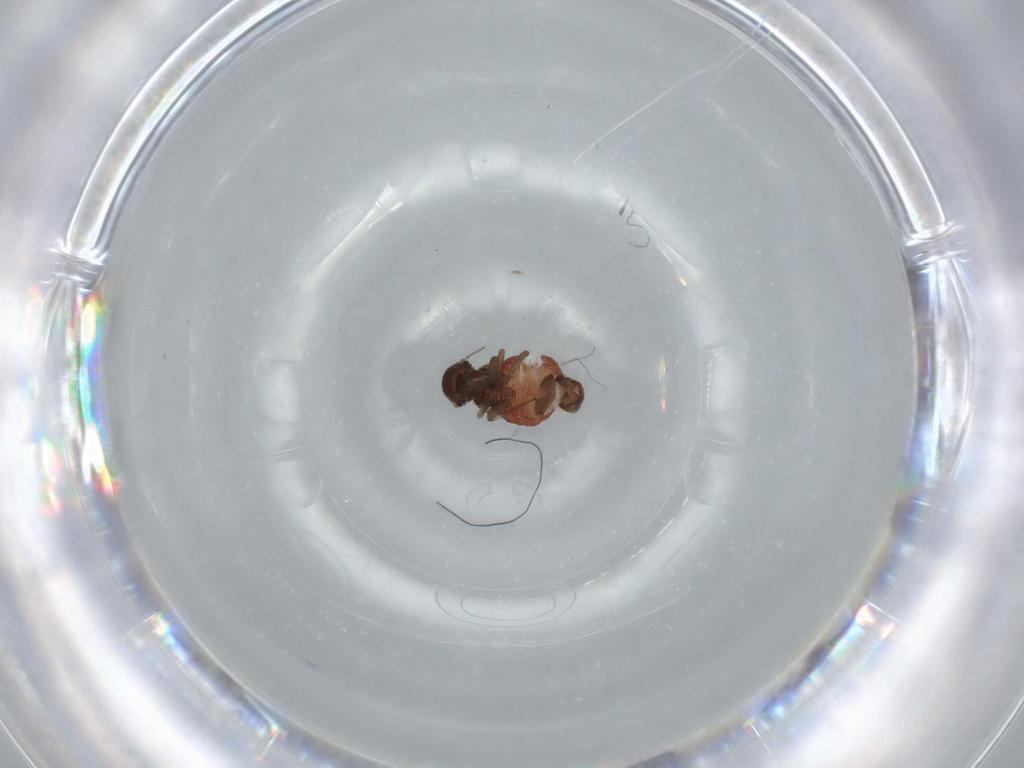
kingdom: Animalia
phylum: Arthropoda
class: Insecta
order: Psocodea
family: Archipsocidae
